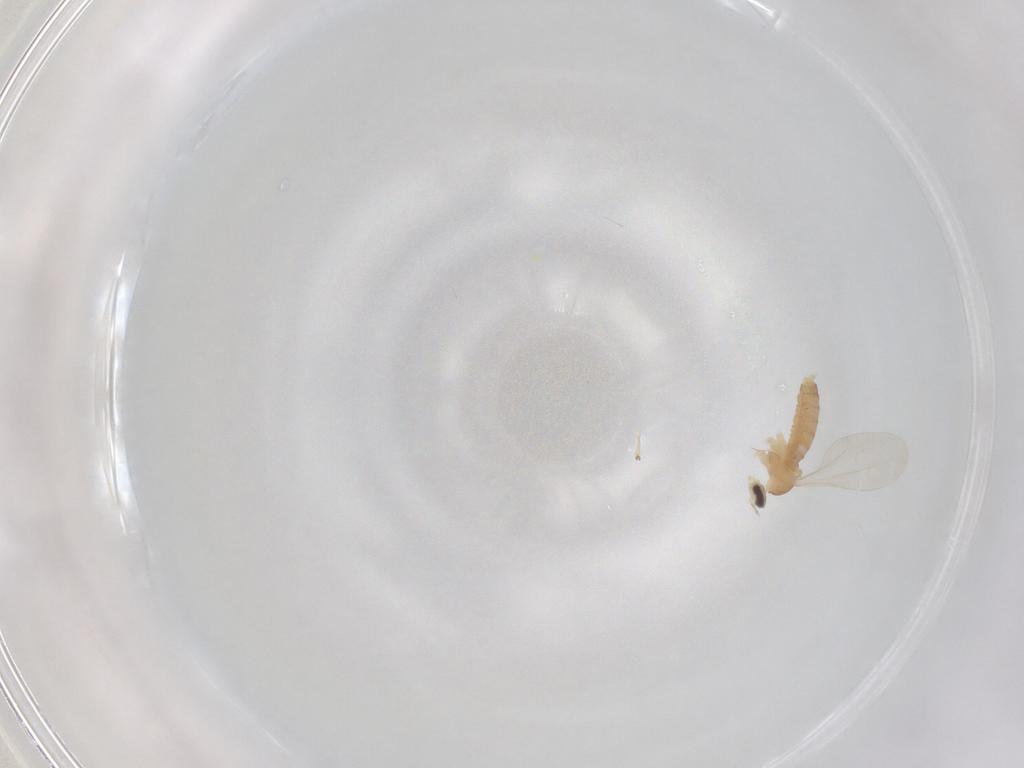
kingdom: Animalia
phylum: Arthropoda
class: Insecta
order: Diptera
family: Cecidomyiidae
